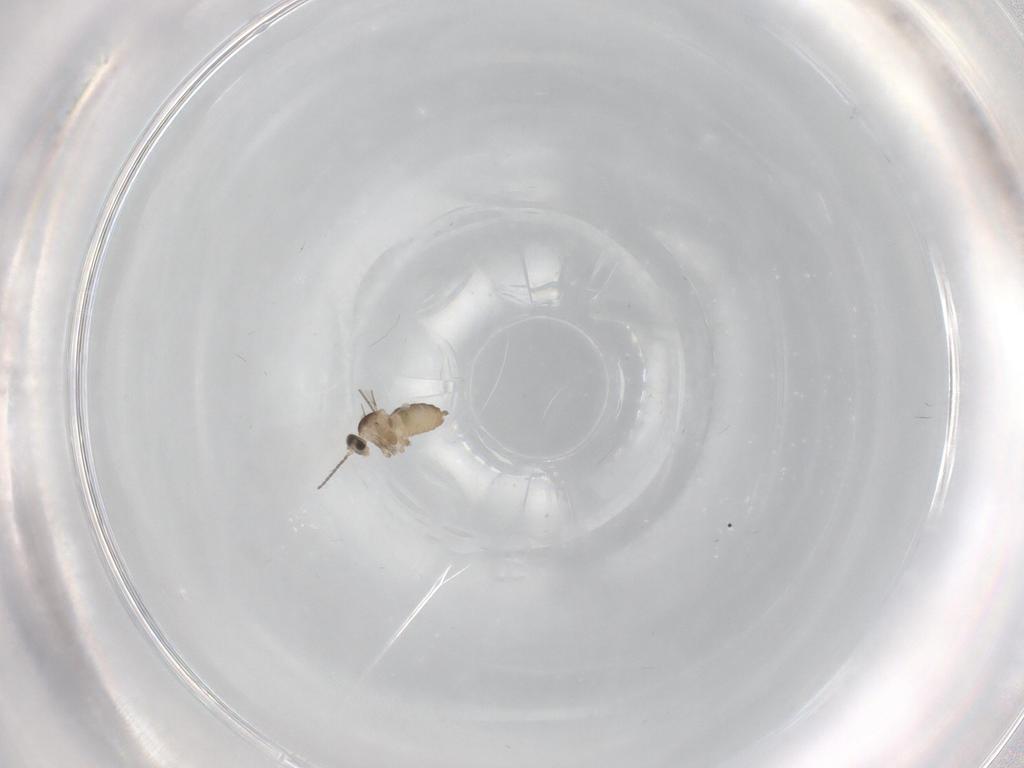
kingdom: Animalia
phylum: Arthropoda
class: Insecta
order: Diptera
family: Cecidomyiidae
